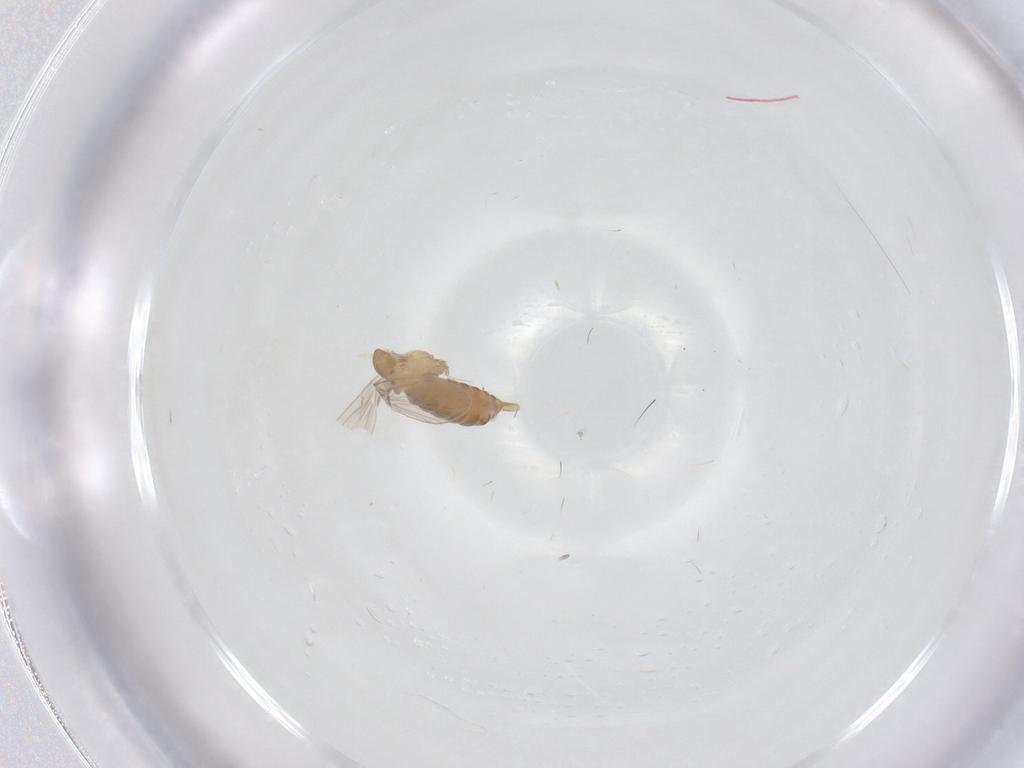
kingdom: Animalia
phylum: Arthropoda
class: Insecta
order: Diptera
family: Psychodidae
